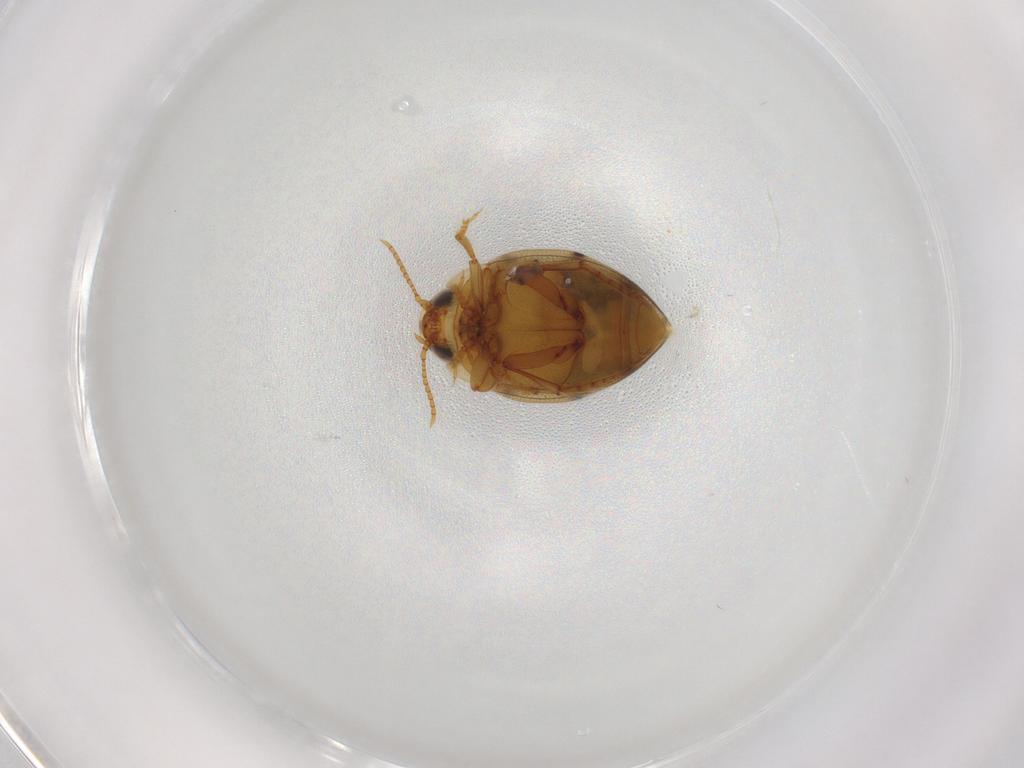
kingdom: Animalia
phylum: Arthropoda
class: Insecta
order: Coleoptera
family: Dytiscidae
